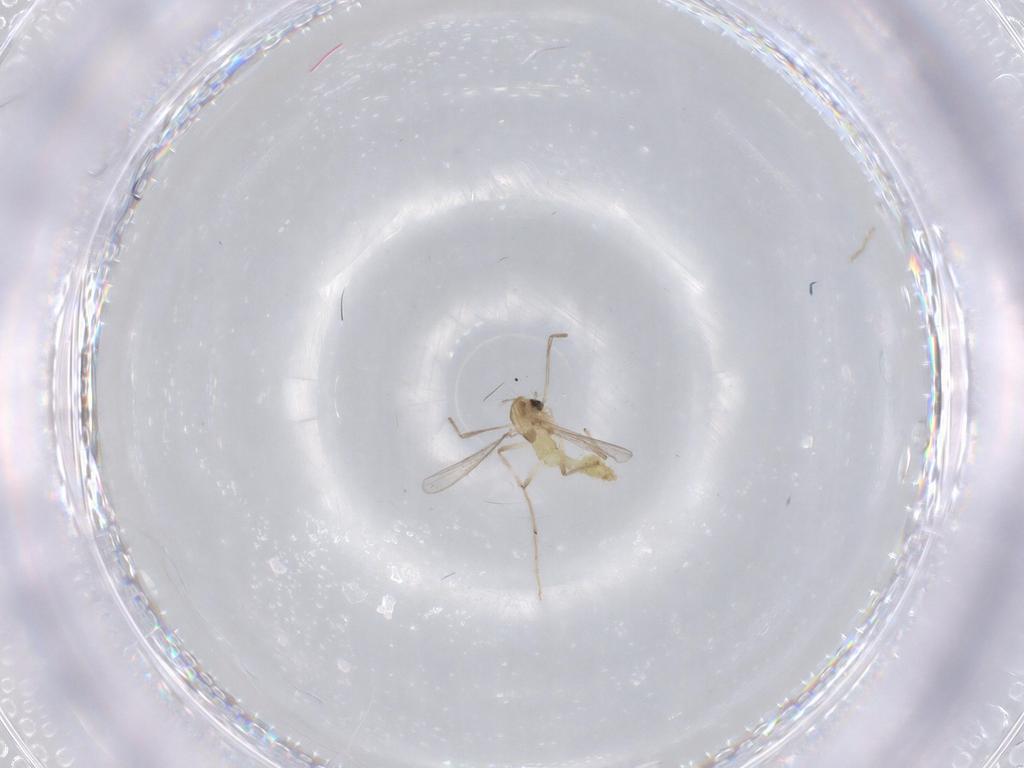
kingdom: Animalia
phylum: Arthropoda
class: Insecta
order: Diptera
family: Chironomidae
